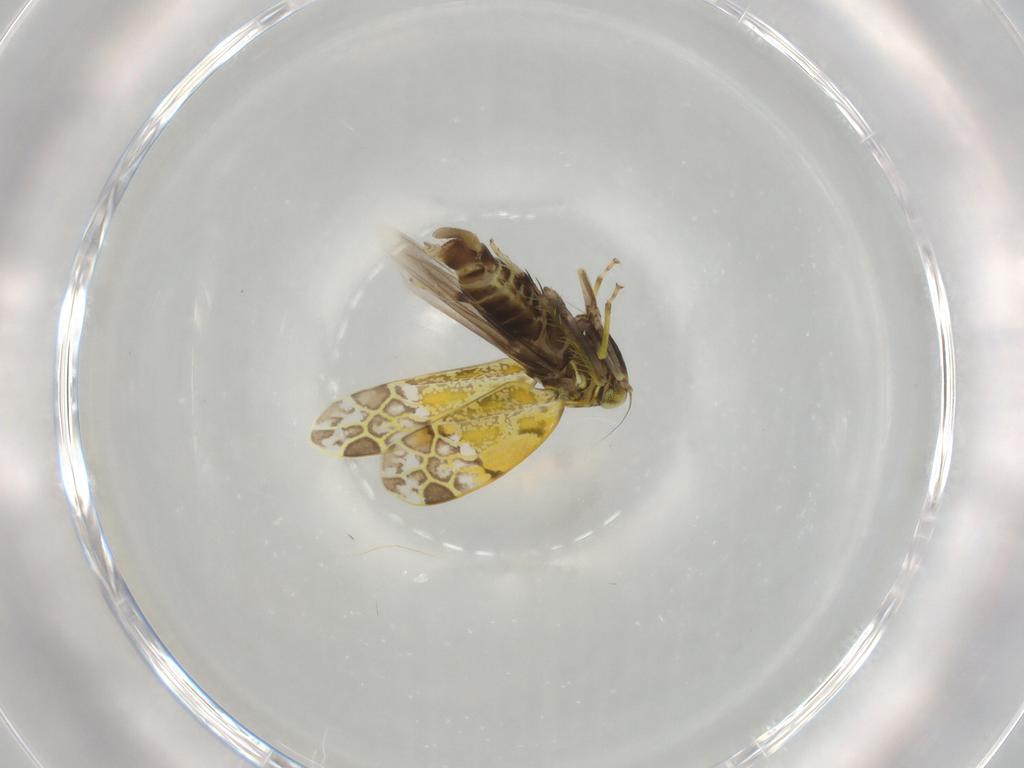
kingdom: Animalia
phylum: Arthropoda
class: Insecta
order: Hemiptera
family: Cicadellidae
